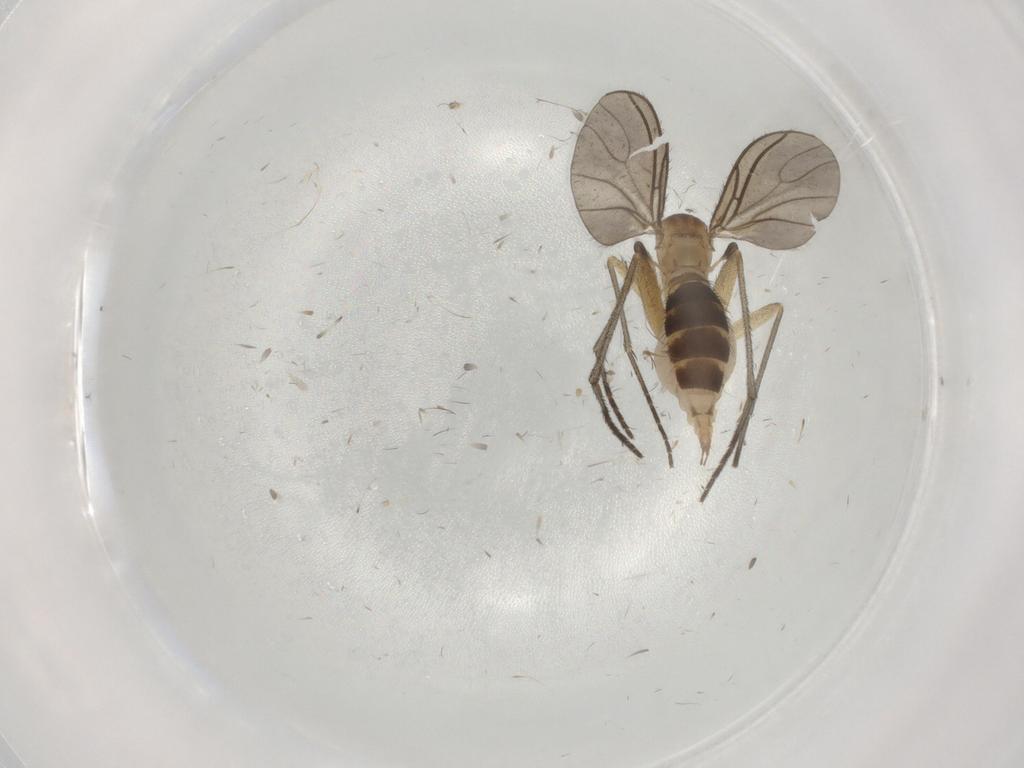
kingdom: Animalia
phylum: Arthropoda
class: Insecta
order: Diptera
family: Sciaridae
